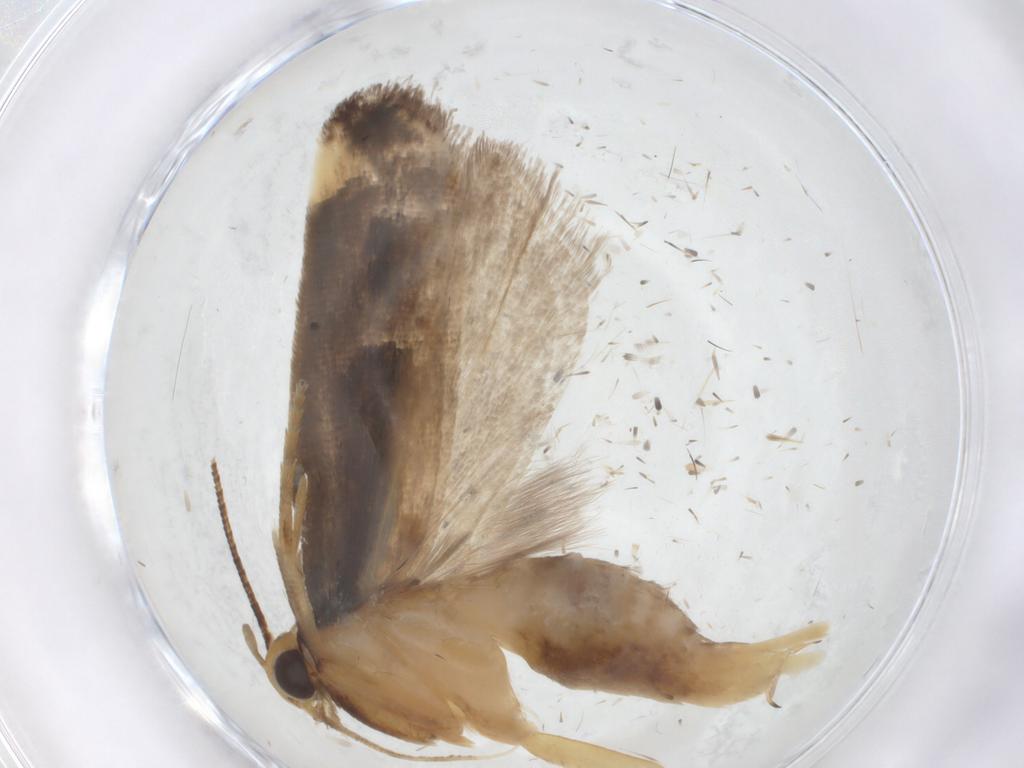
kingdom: Animalia
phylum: Arthropoda
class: Insecta
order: Lepidoptera
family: Gelechiidae
